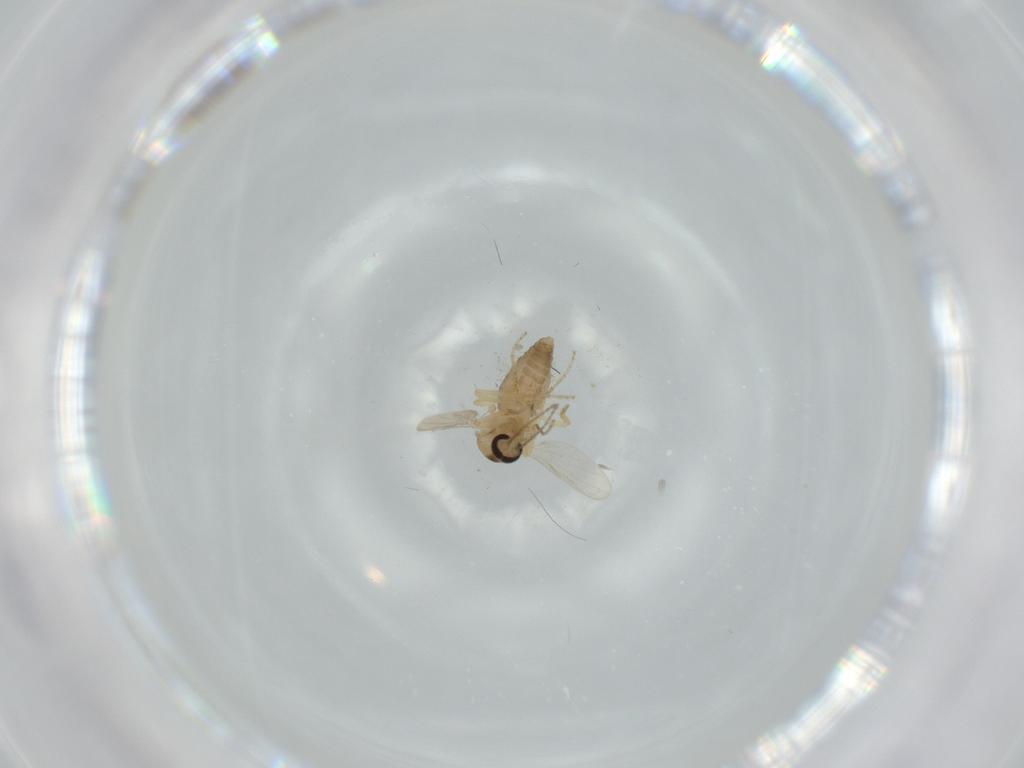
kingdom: Animalia
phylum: Arthropoda
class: Insecta
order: Diptera
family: Ceratopogonidae
